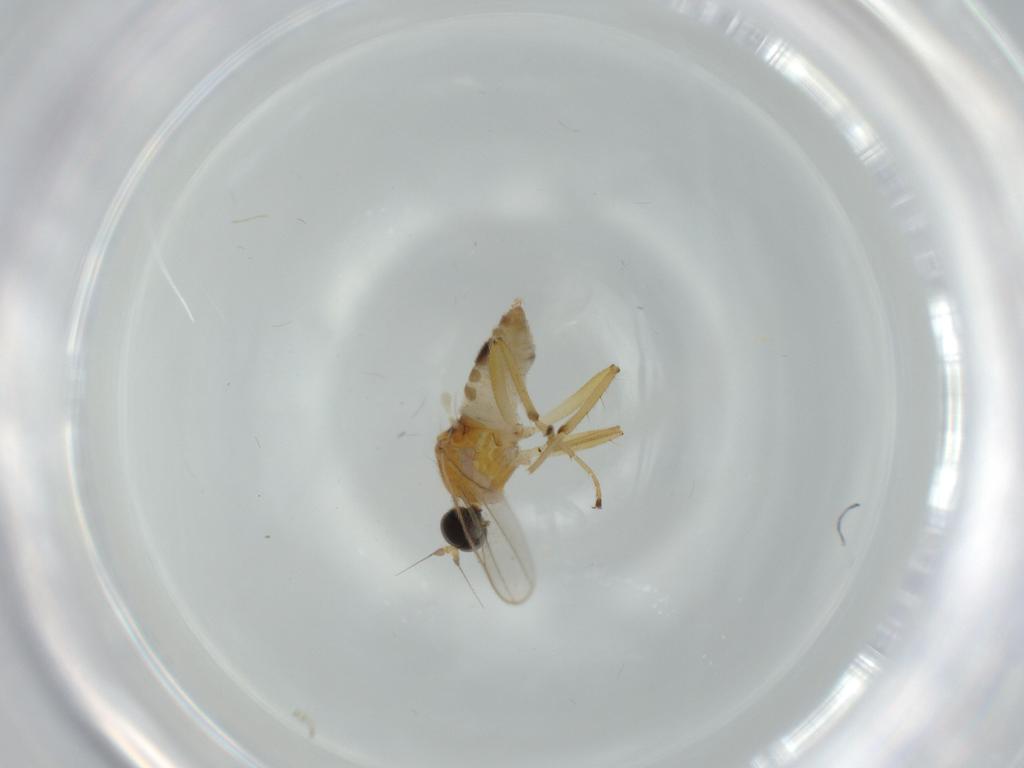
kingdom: Animalia
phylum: Arthropoda
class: Insecta
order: Diptera
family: Hybotidae
